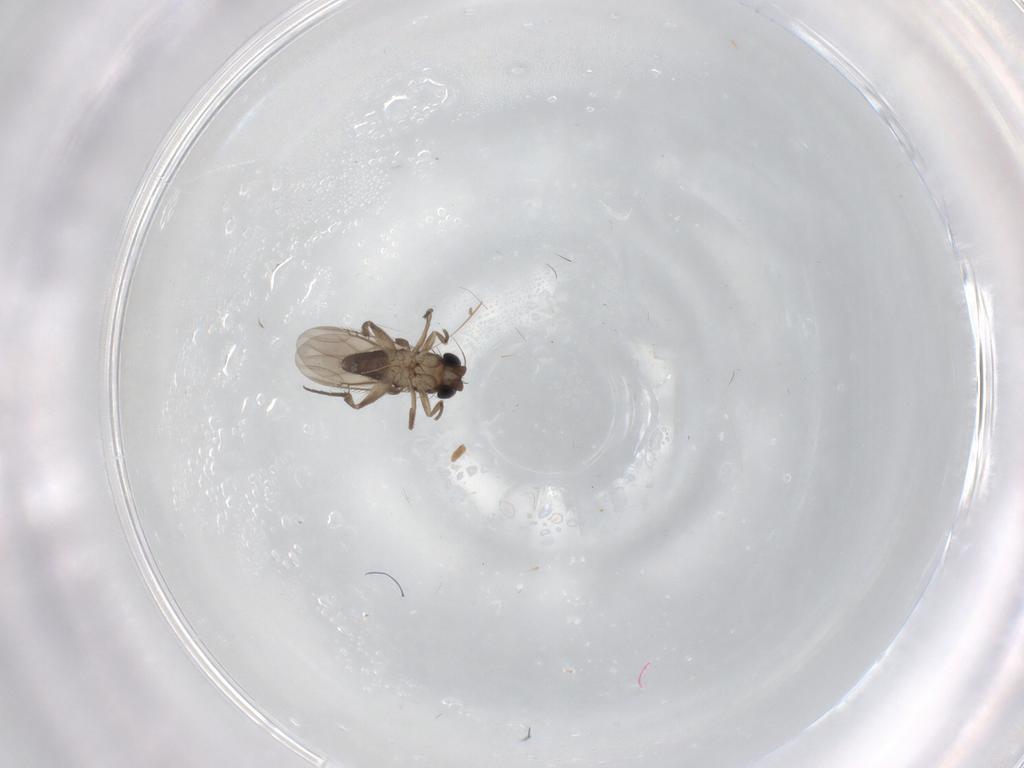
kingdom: Animalia
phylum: Arthropoda
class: Insecta
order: Diptera
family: Phoridae
